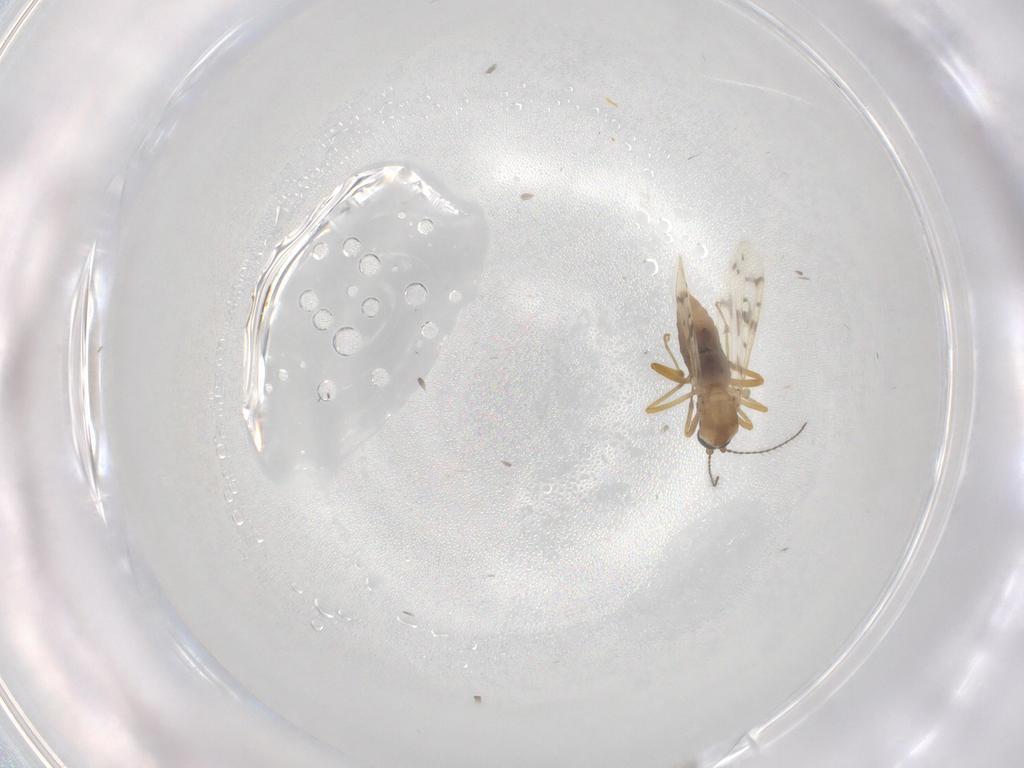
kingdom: Animalia
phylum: Arthropoda
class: Insecta
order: Diptera
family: Chironomidae
